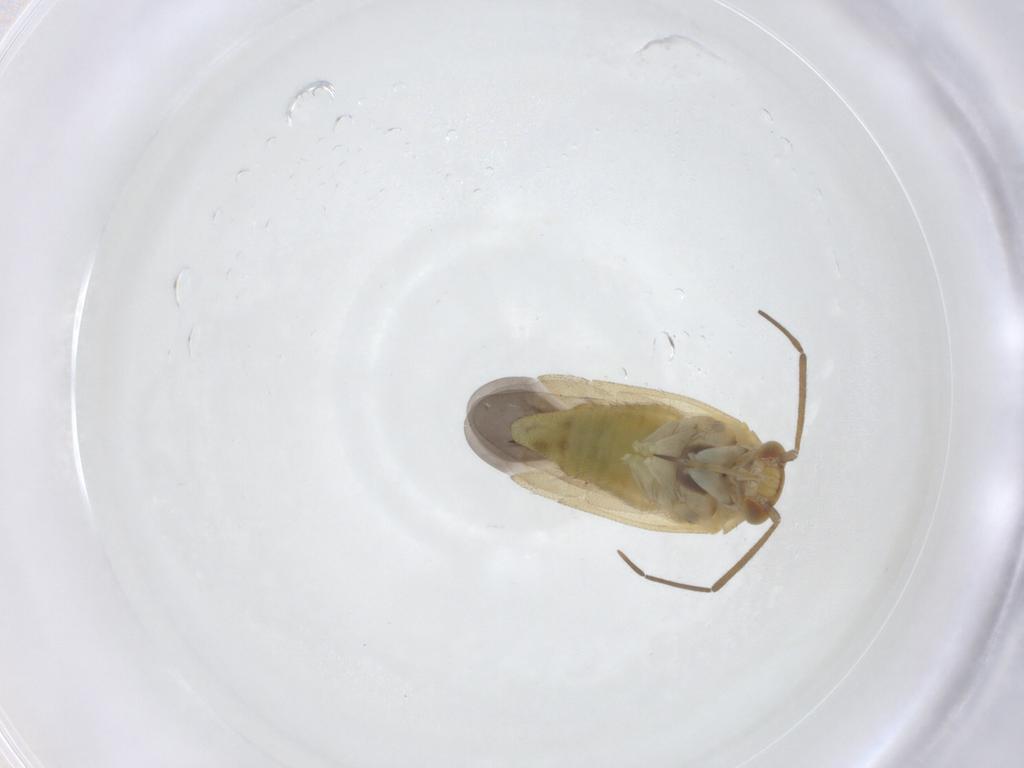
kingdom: Animalia
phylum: Arthropoda
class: Insecta
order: Hemiptera
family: Miridae
